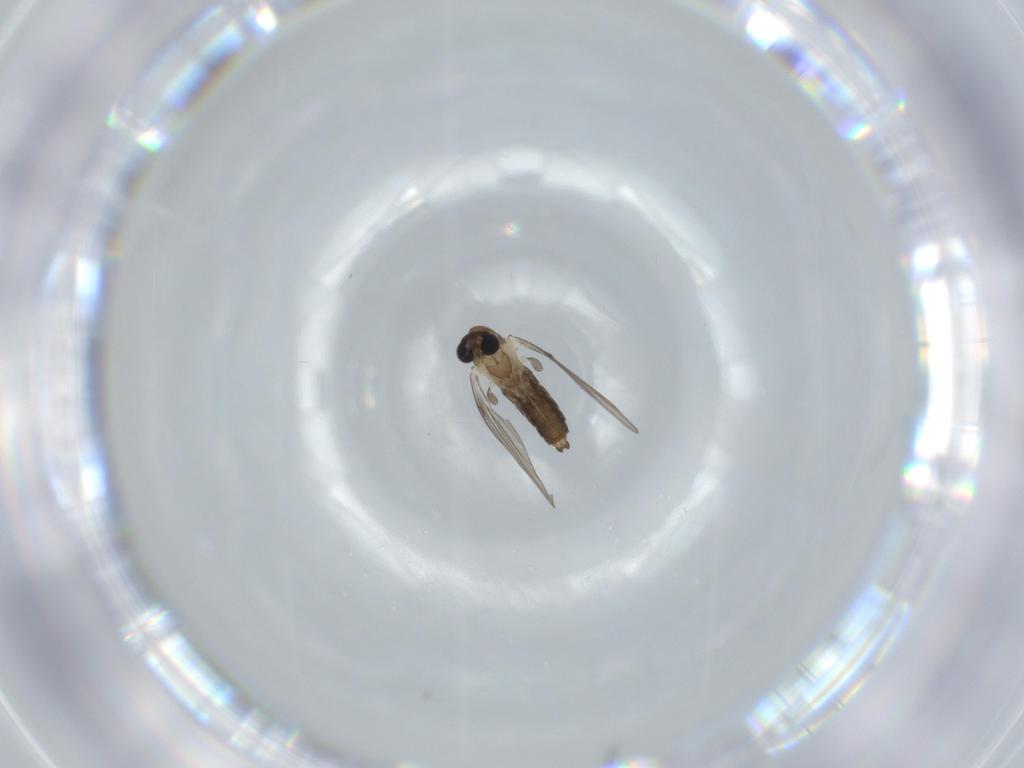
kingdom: Animalia
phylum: Arthropoda
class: Insecta
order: Diptera
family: Psychodidae
